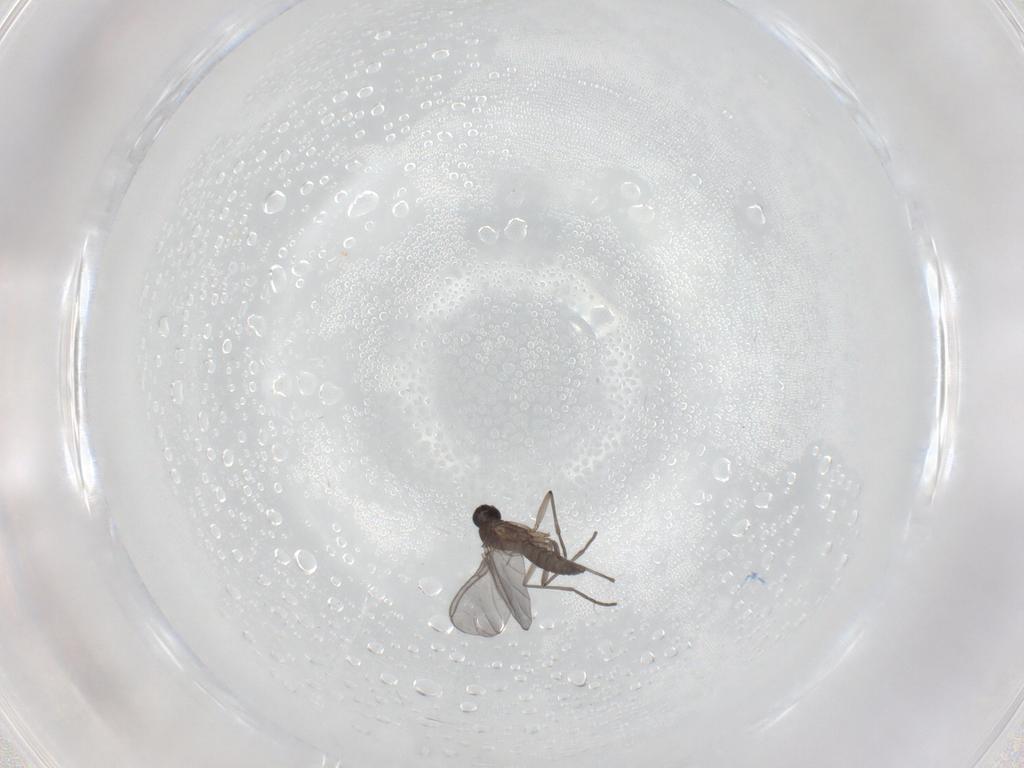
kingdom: Animalia
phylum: Arthropoda
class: Insecta
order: Diptera
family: Sciaridae
